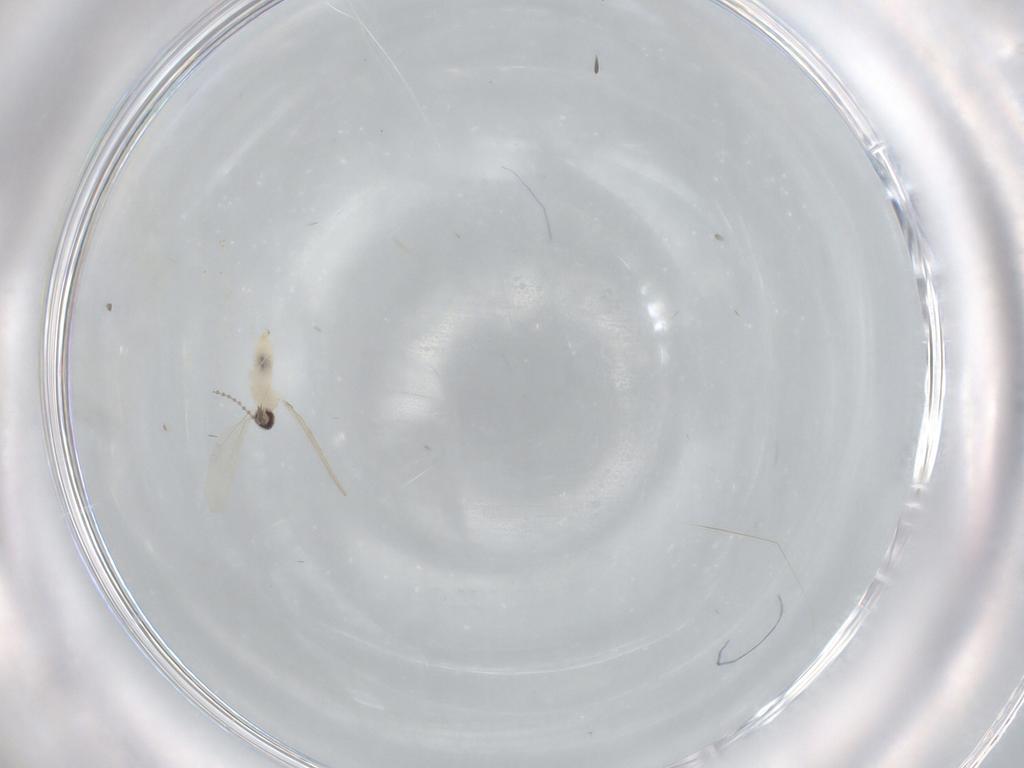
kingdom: Animalia
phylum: Arthropoda
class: Insecta
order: Diptera
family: Cecidomyiidae
